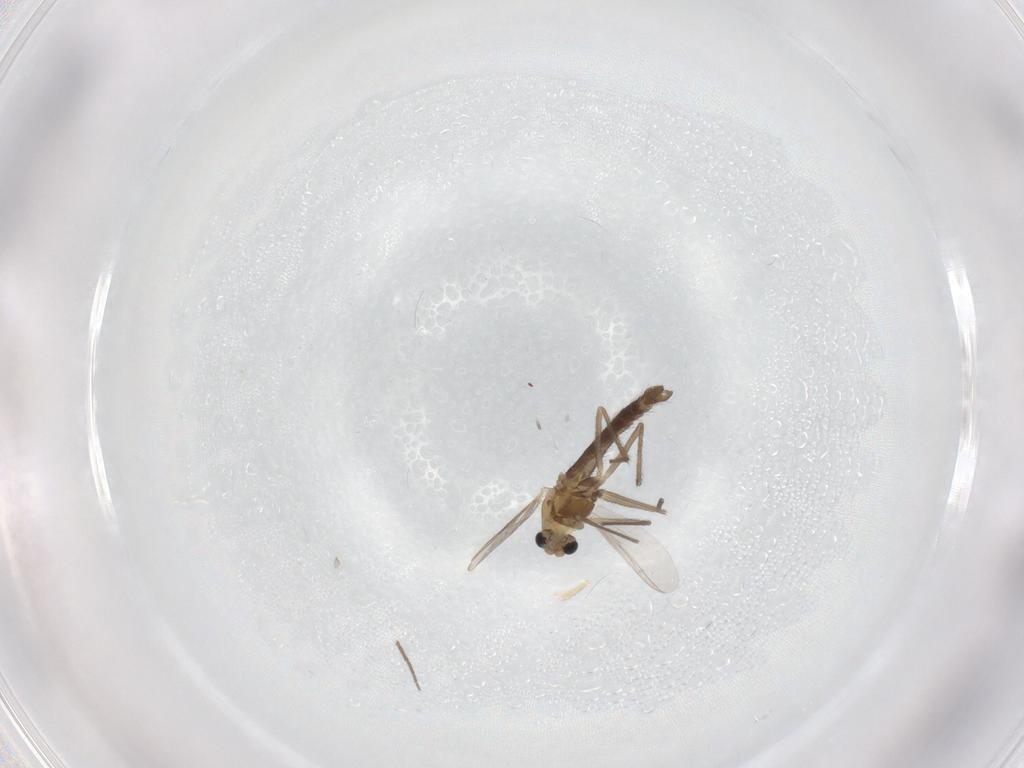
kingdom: Animalia
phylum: Arthropoda
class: Insecta
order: Diptera
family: Chironomidae
